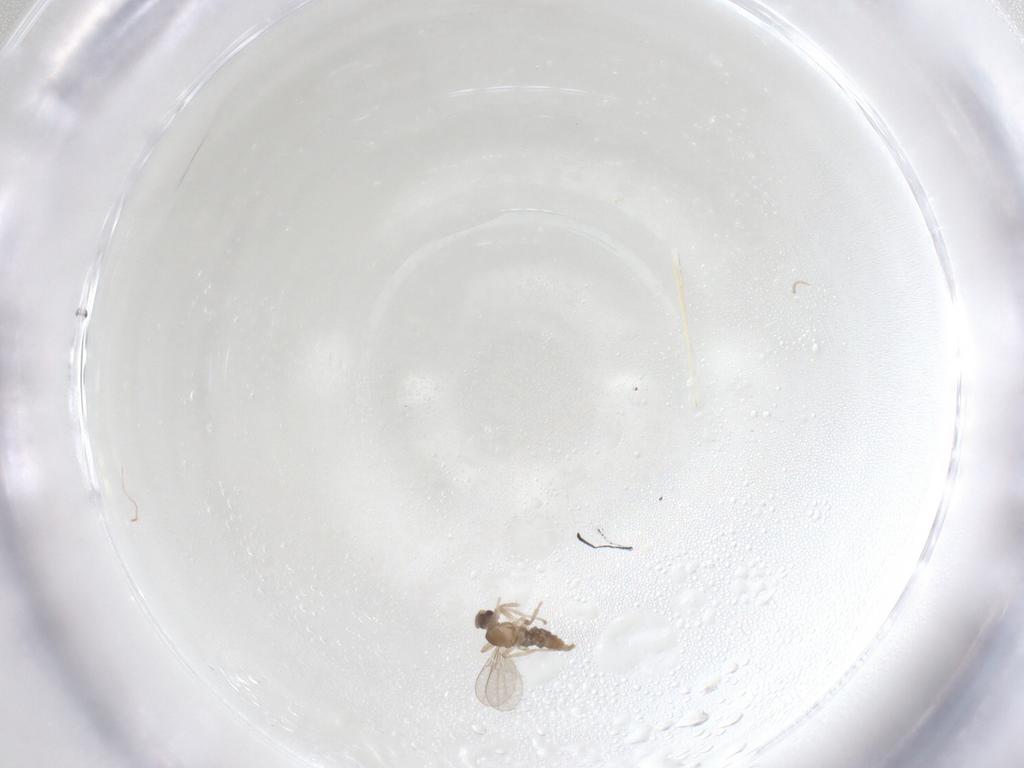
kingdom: Animalia
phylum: Arthropoda
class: Insecta
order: Diptera
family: Cecidomyiidae
